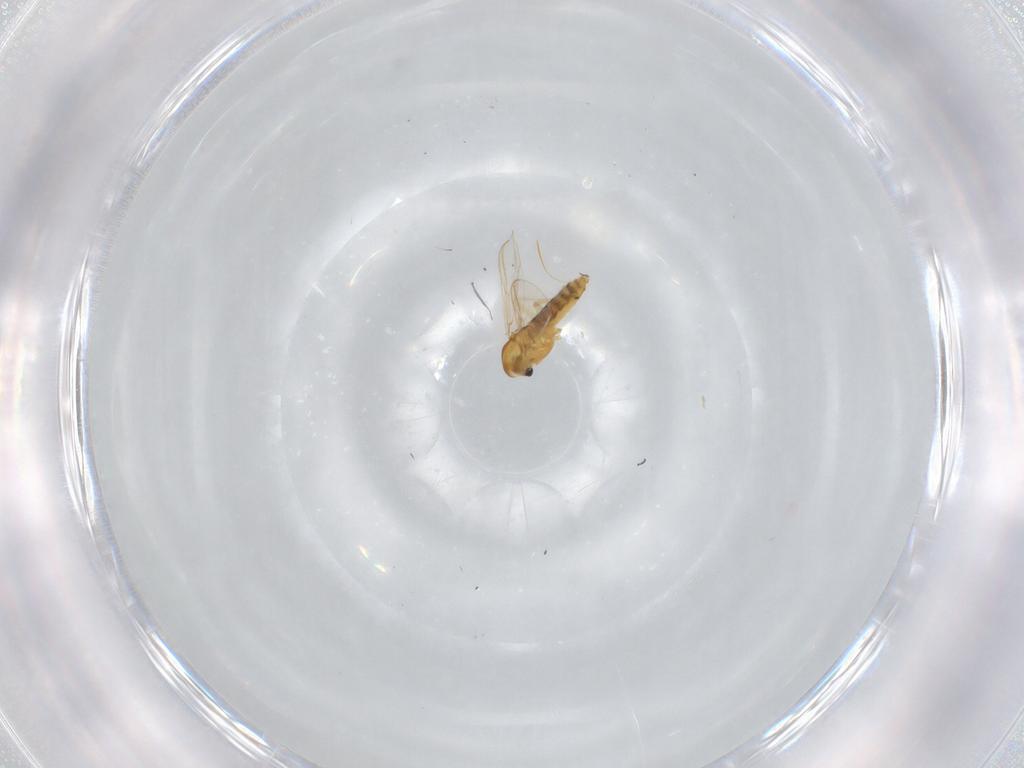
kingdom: Animalia
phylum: Arthropoda
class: Insecta
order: Diptera
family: Chironomidae
